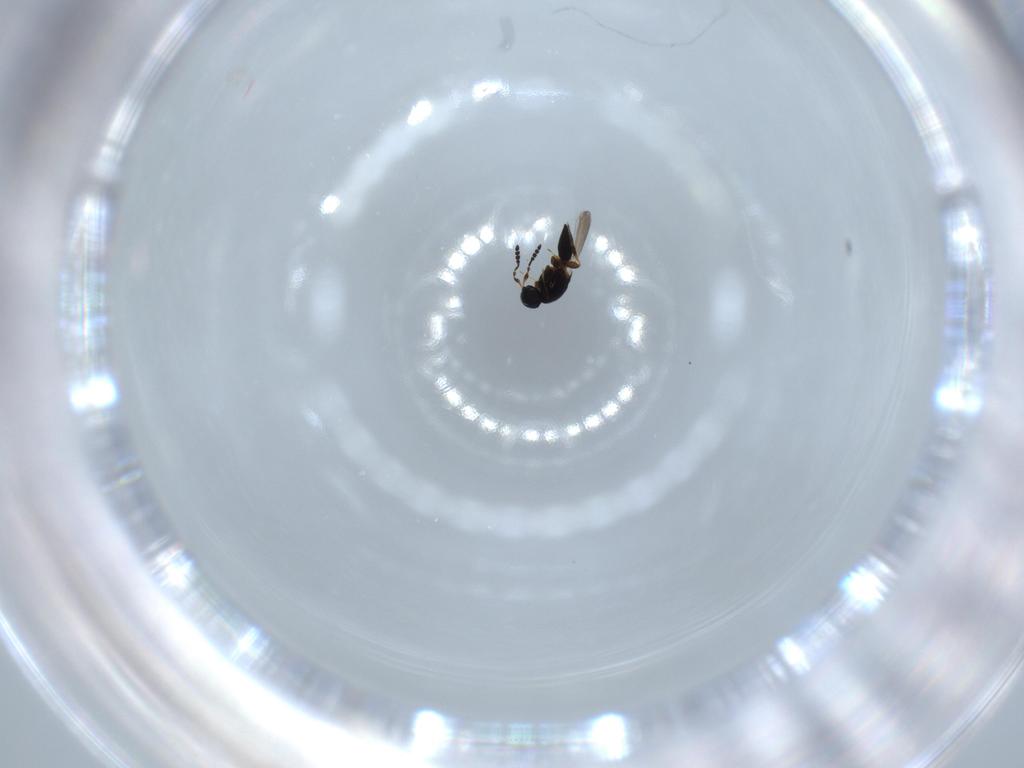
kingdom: Animalia
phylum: Arthropoda
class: Insecta
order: Hymenoptera
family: Platygastridae
